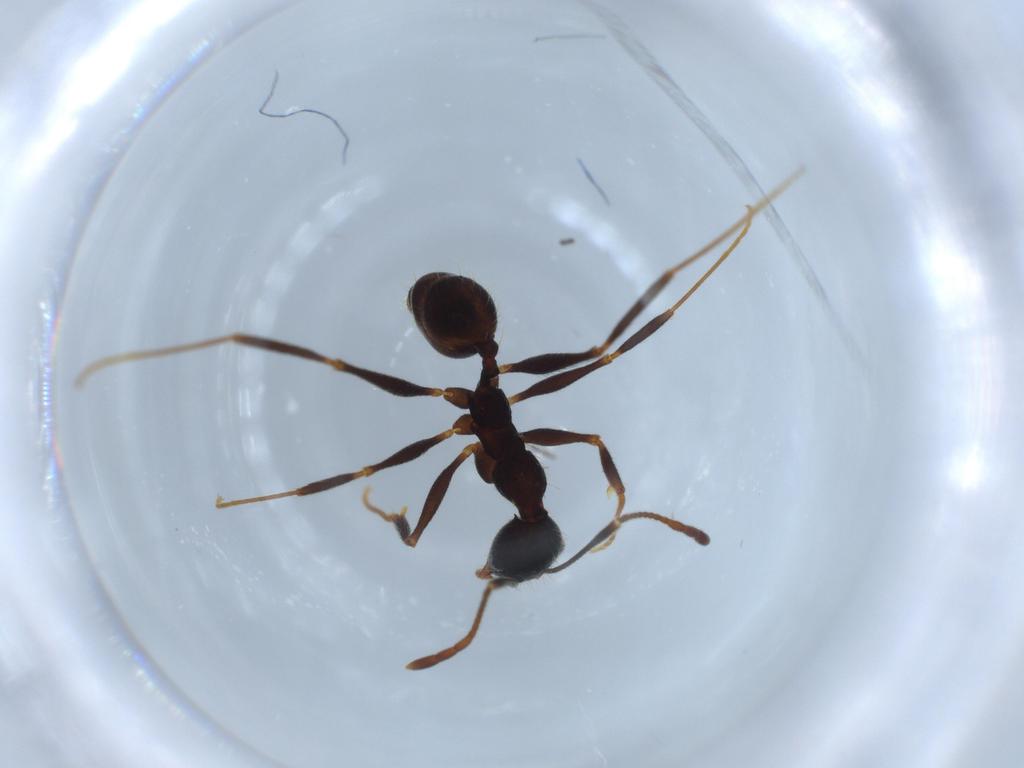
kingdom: Animalia
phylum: Arthropoda
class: Insecta
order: Hymenoptera
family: Formicidae
